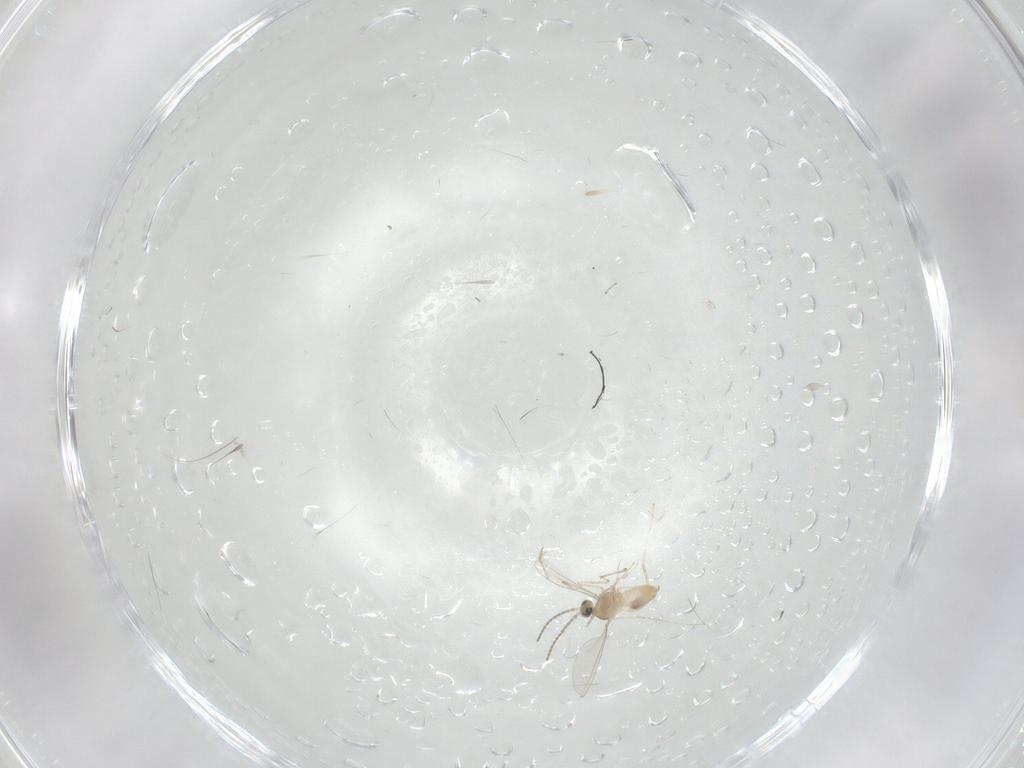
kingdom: Animalia
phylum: Arthropoda
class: Insecta
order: Diptera
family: Cecidomyiidae
